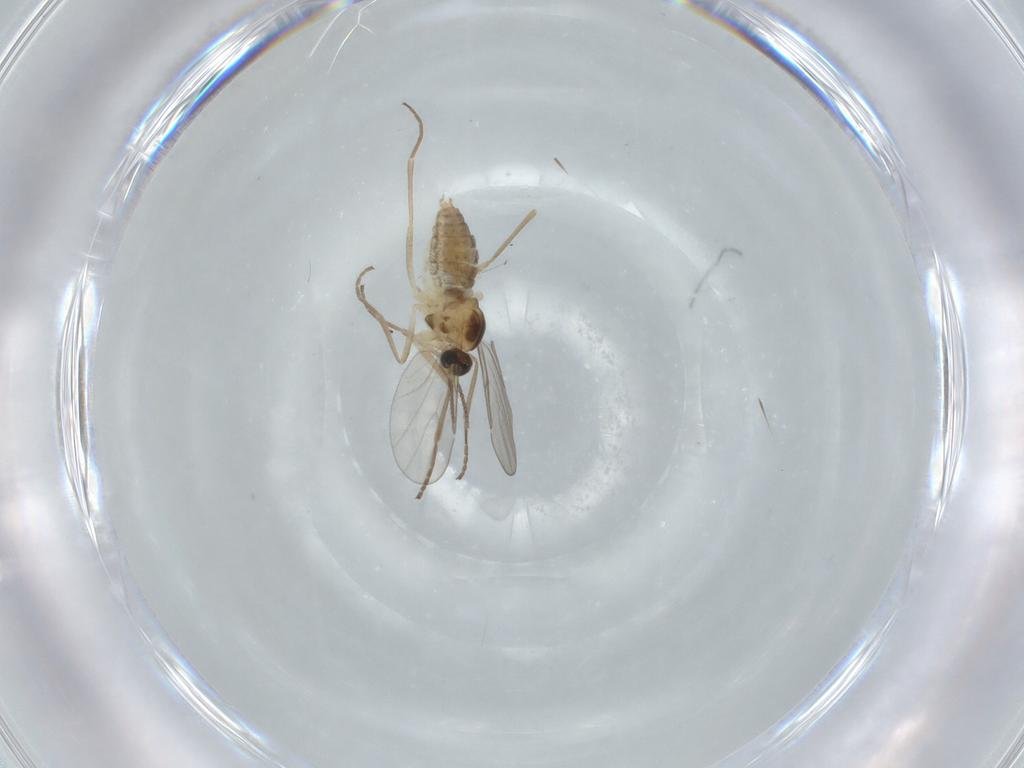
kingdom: Animalia
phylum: Arthropoda
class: Insecta
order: Diptera
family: Cecidomyiidae
